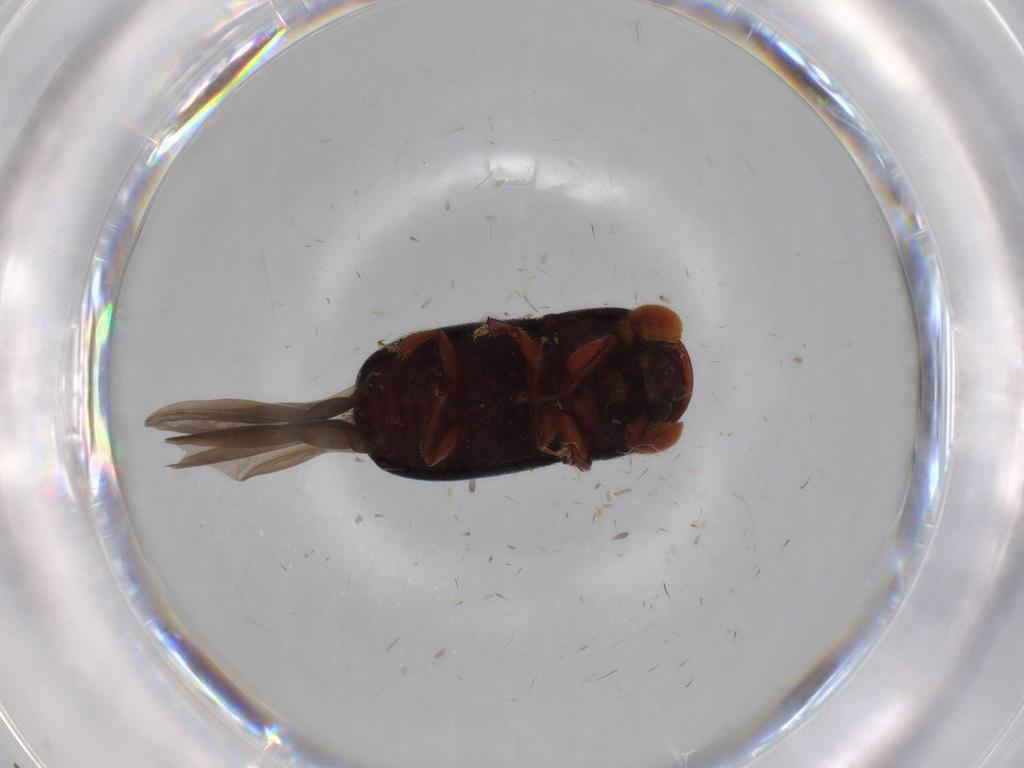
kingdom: Animalia
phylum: Arthropoda
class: Insecta
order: Coleoptera
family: Curculionidae
